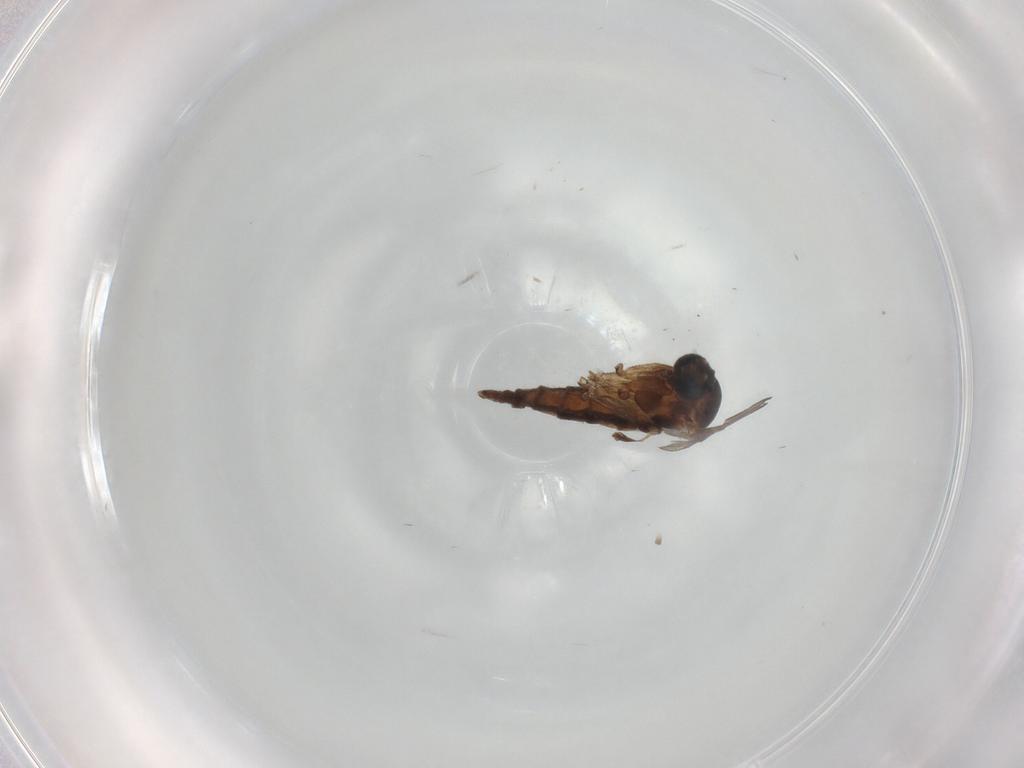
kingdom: Animalia
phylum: Arthropoda
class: Insecta
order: Diptera
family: Sciaridae
